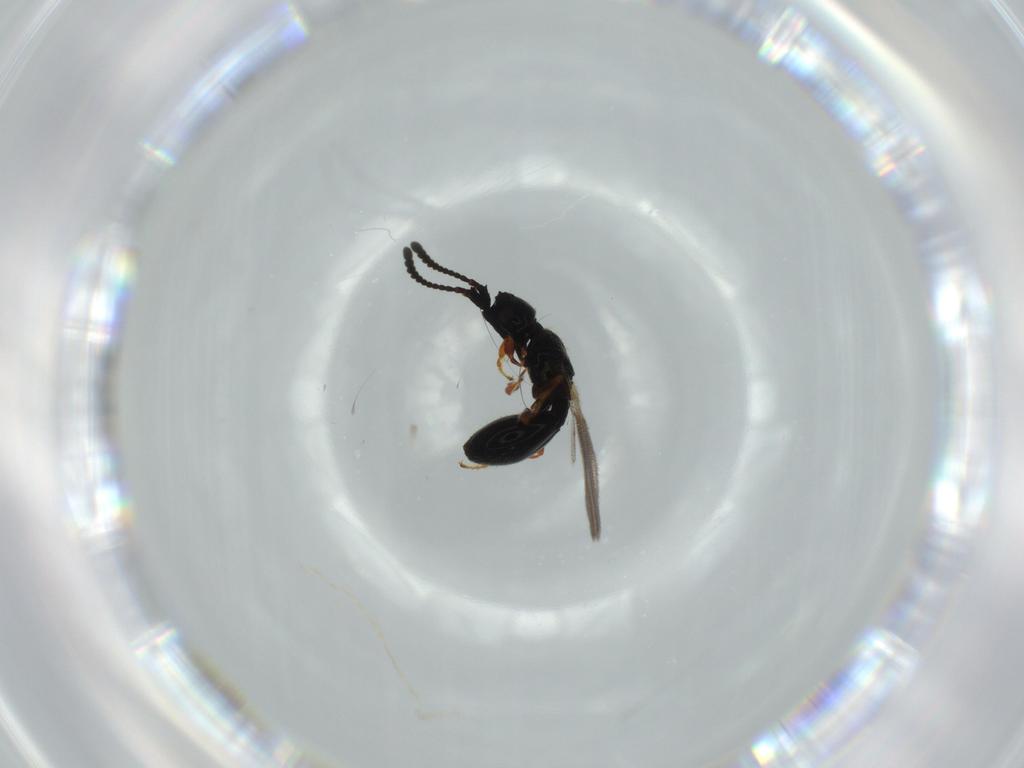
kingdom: Animalia
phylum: Arthropoda
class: Insecta
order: Hymenoptera
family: Diapriidae
